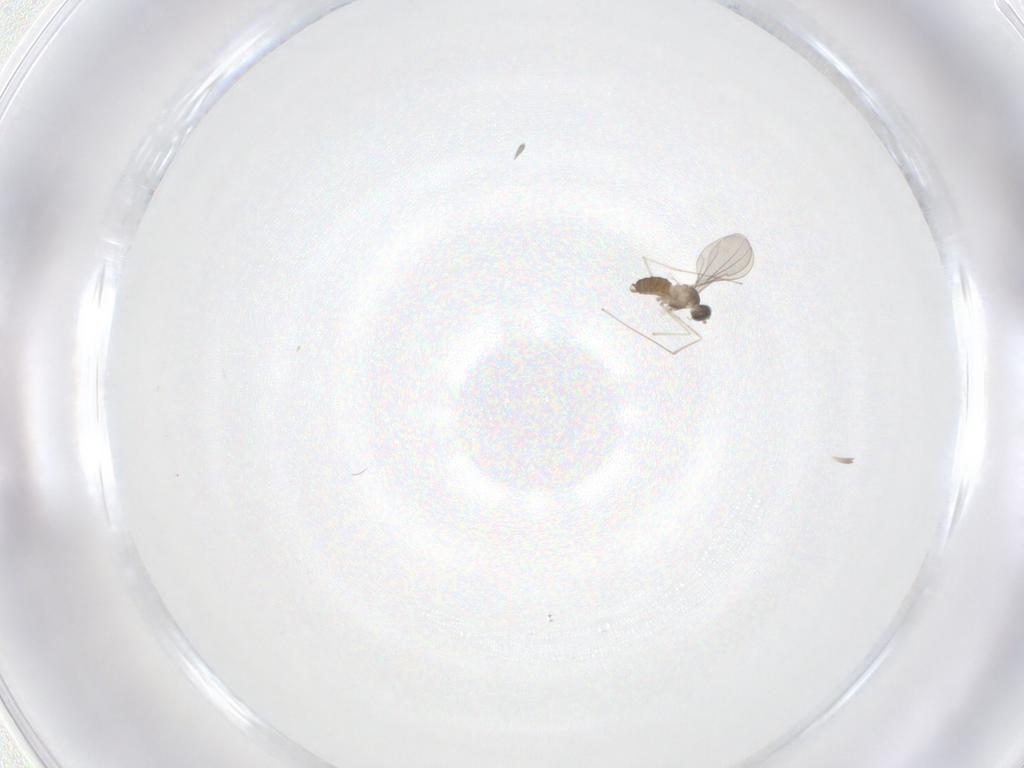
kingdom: Animalia
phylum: Arthropoda
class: Insecta
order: Diptera
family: Cecidomyiidae
